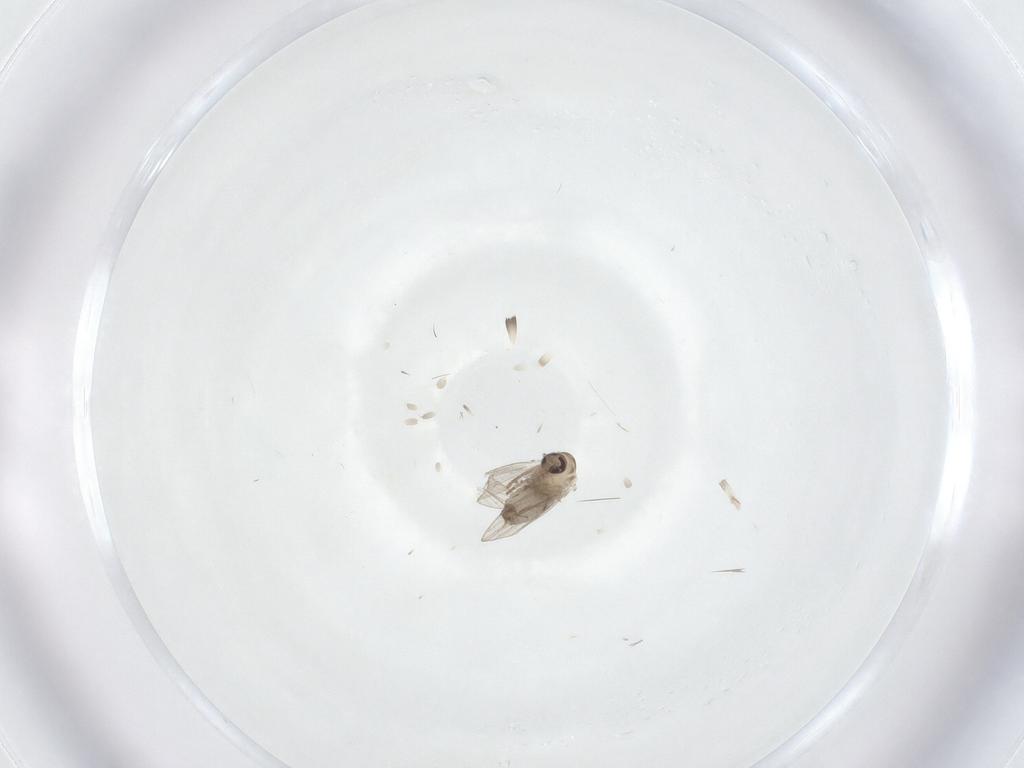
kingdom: Animalia
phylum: Arthropoda
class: Insecta
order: Diptera
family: Psychodidae
